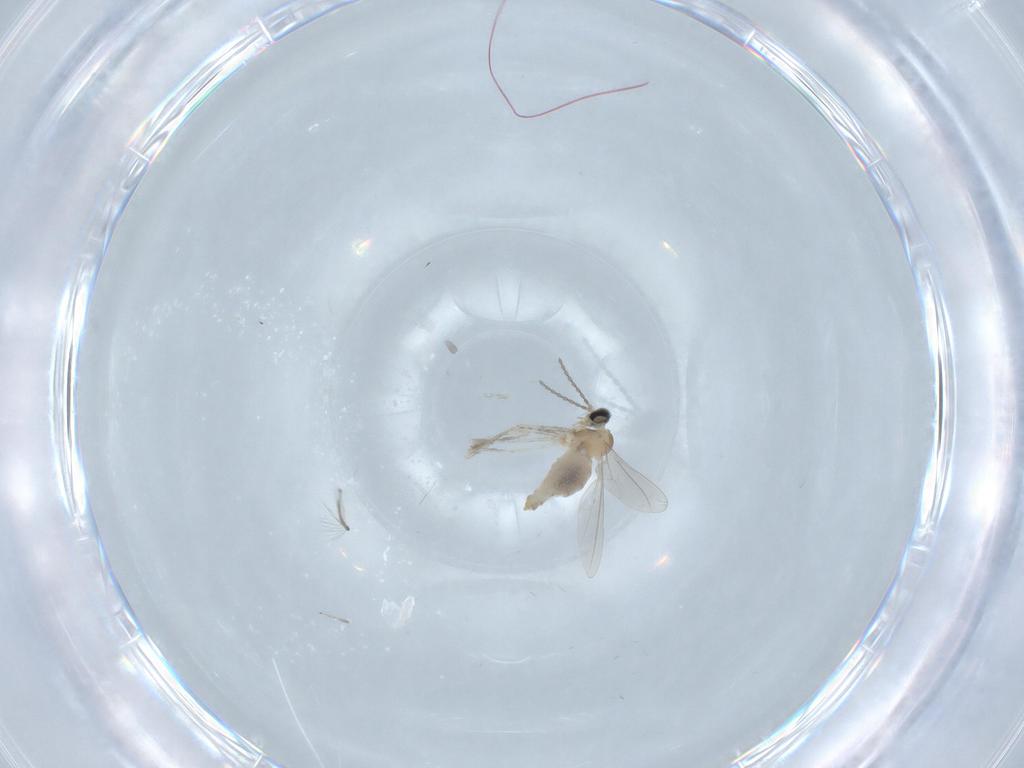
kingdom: Animalia
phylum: Arthropoda
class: Insecta
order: Diptera
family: Cecidomyiidae
